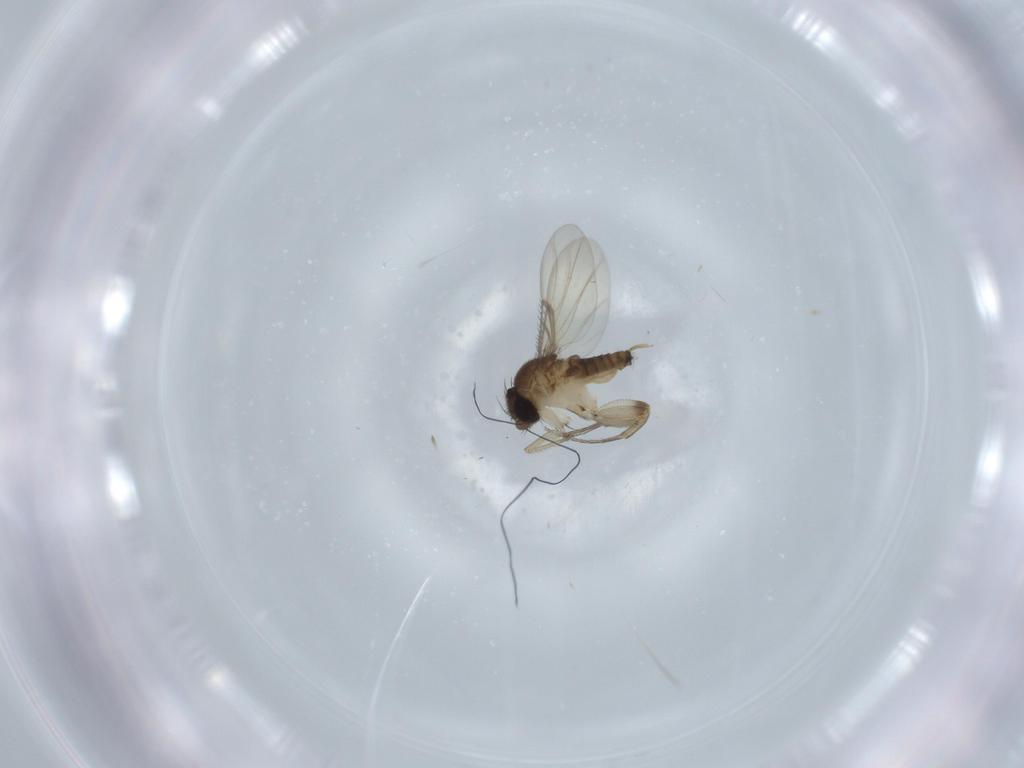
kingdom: Animalia
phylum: Arthropoda
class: Insecta
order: Diptera
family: Phoridae
